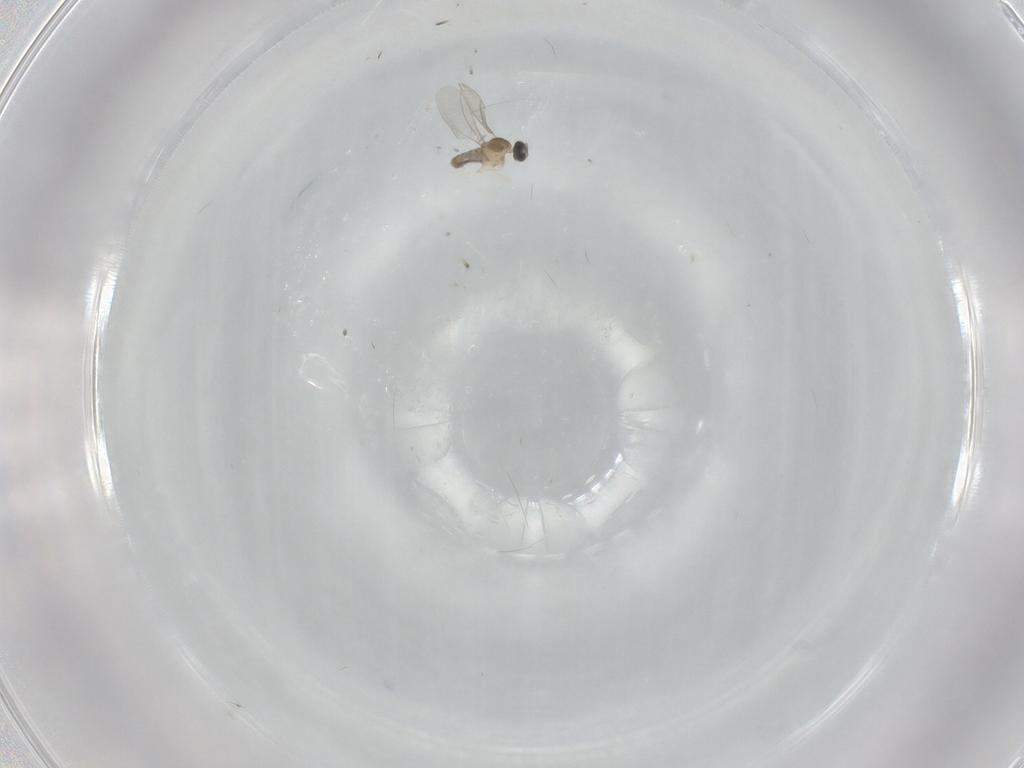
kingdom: Animalia
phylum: Arthropoda
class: Insecta
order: Diptera
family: Cecidomyiidae
